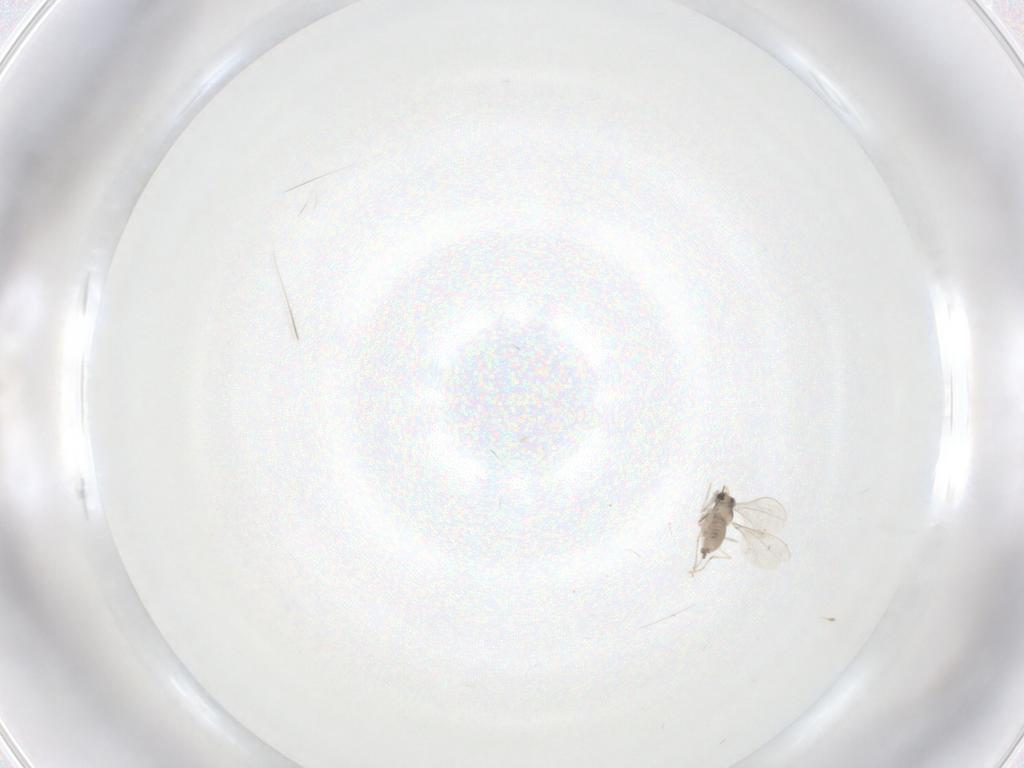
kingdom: Animalia
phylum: Arthropoda
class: Insecta
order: Diptera
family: Cecidomyiidae
